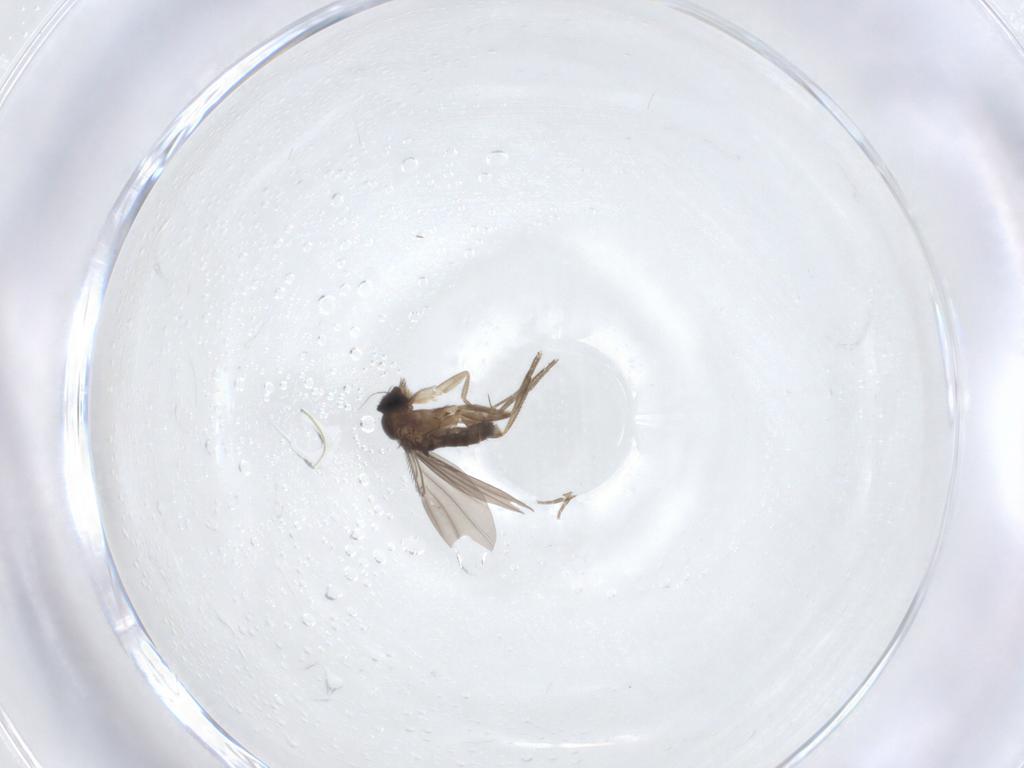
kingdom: Animalia
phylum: Arthropoda
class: Insecta
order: Diptera
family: Phoridae
